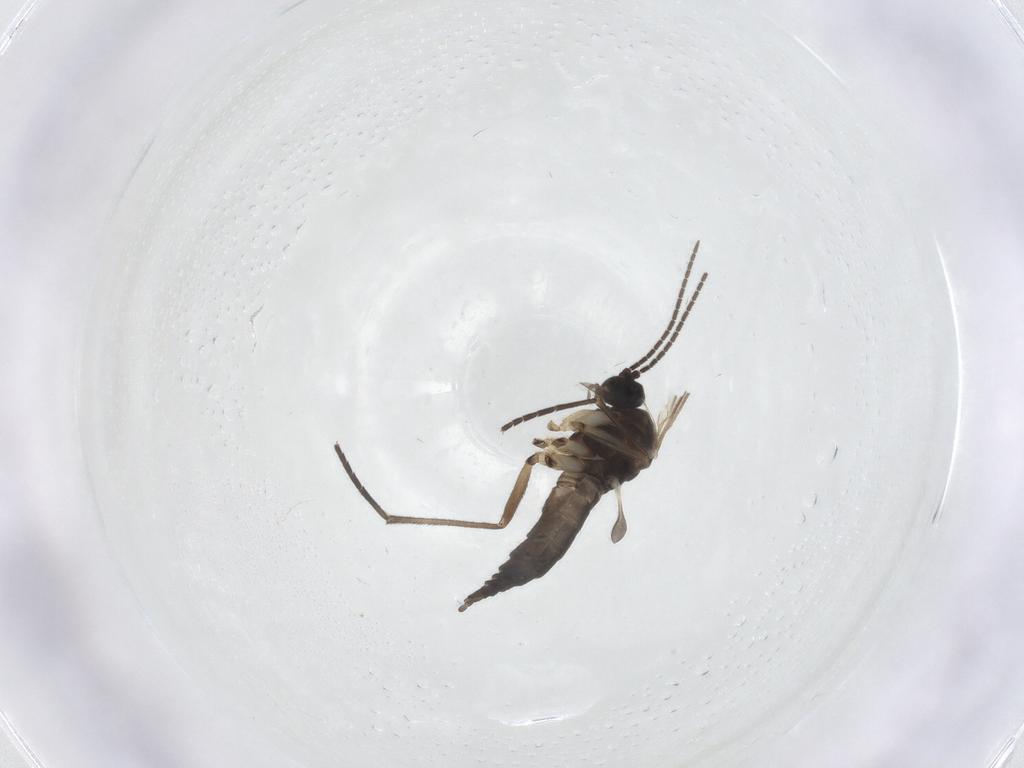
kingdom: Animalia
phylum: Arthropoda
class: Insecta
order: Diptera
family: Sciaridae
